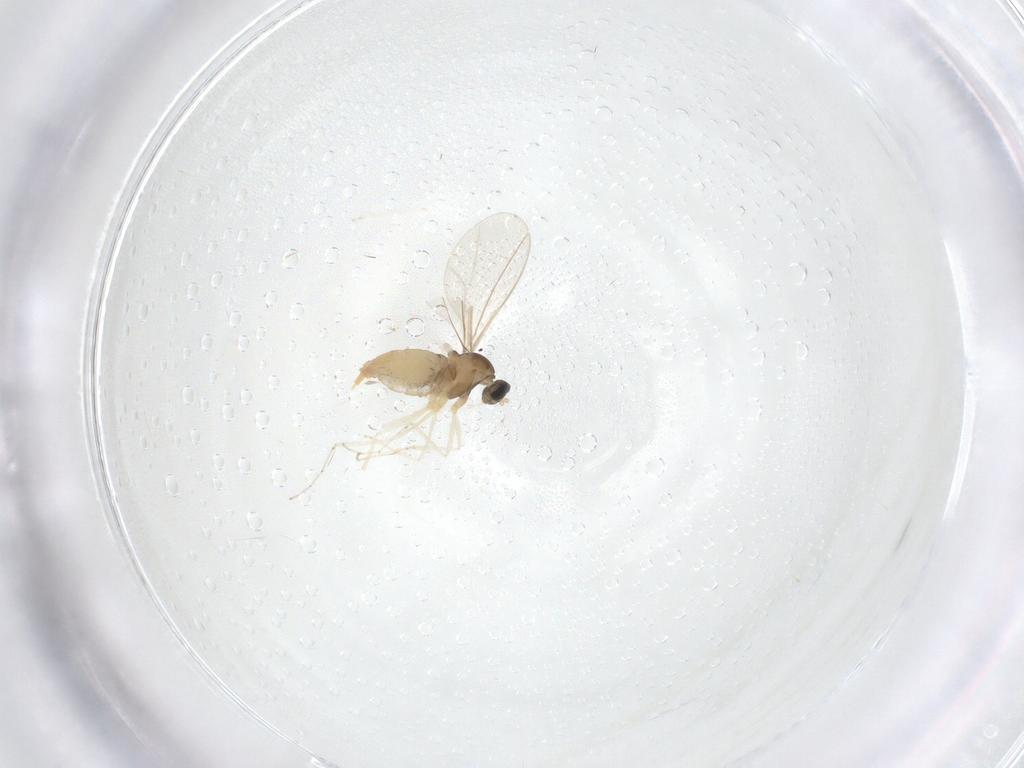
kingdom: Animalia
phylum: Arthropoda
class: Insecta
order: Diptera
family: Cecidomyiidae
